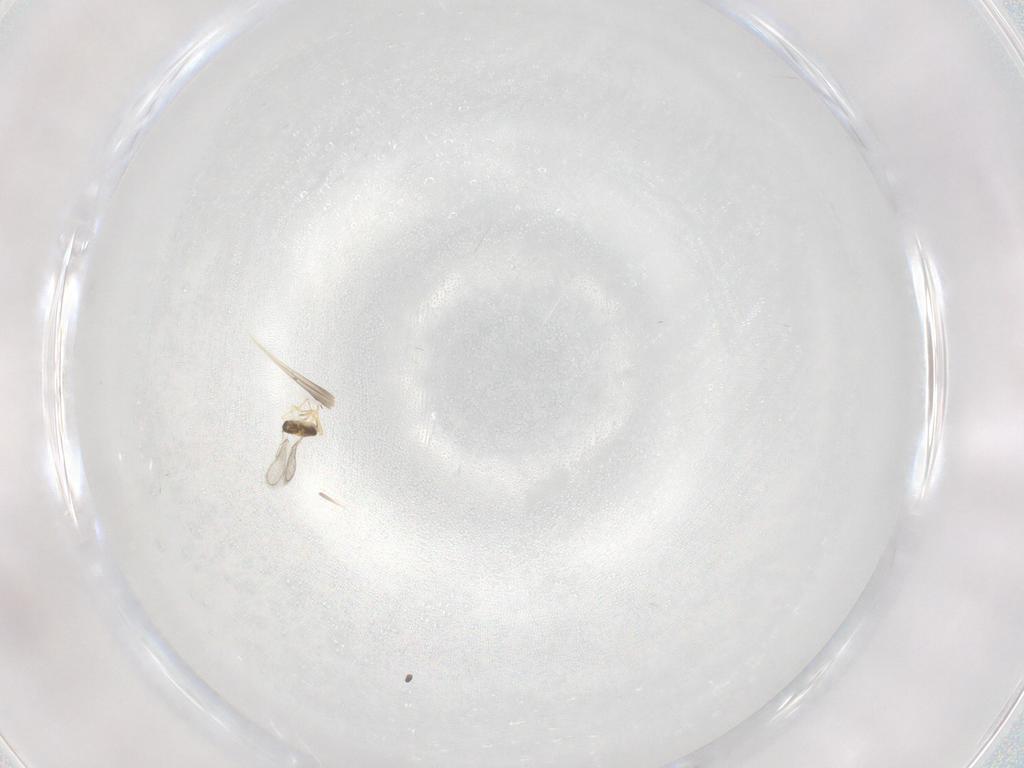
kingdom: Animalia
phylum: Arthropoda
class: Insecta
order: Hymenoptera
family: Aphelinidae
